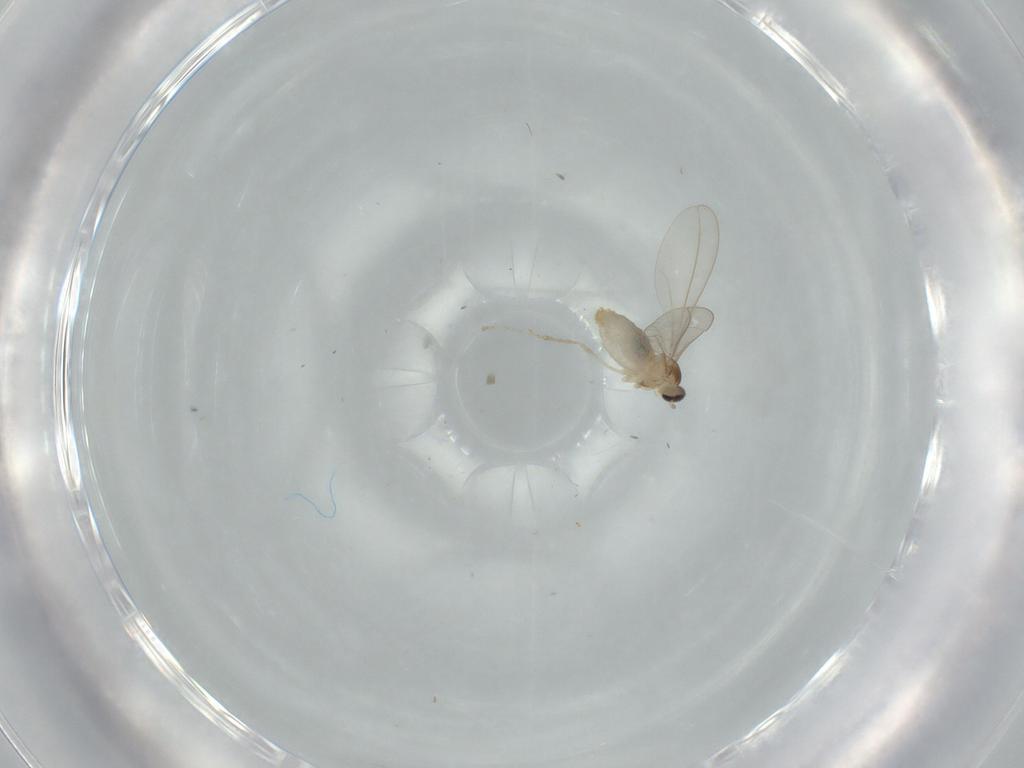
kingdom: Animalia
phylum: Arthropoda
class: Insecta
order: Diptera
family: Cecidomyiidae
